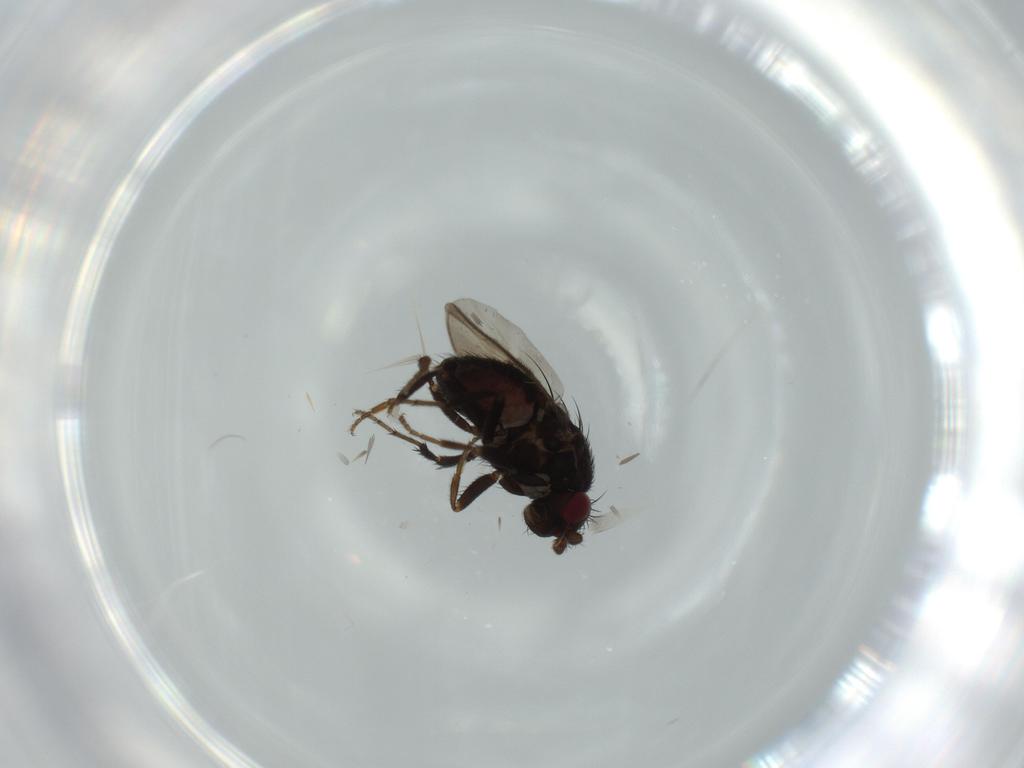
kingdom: Animalia
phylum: Arthropoda
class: Insecta
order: Diptera
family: Sphaeroceridae
